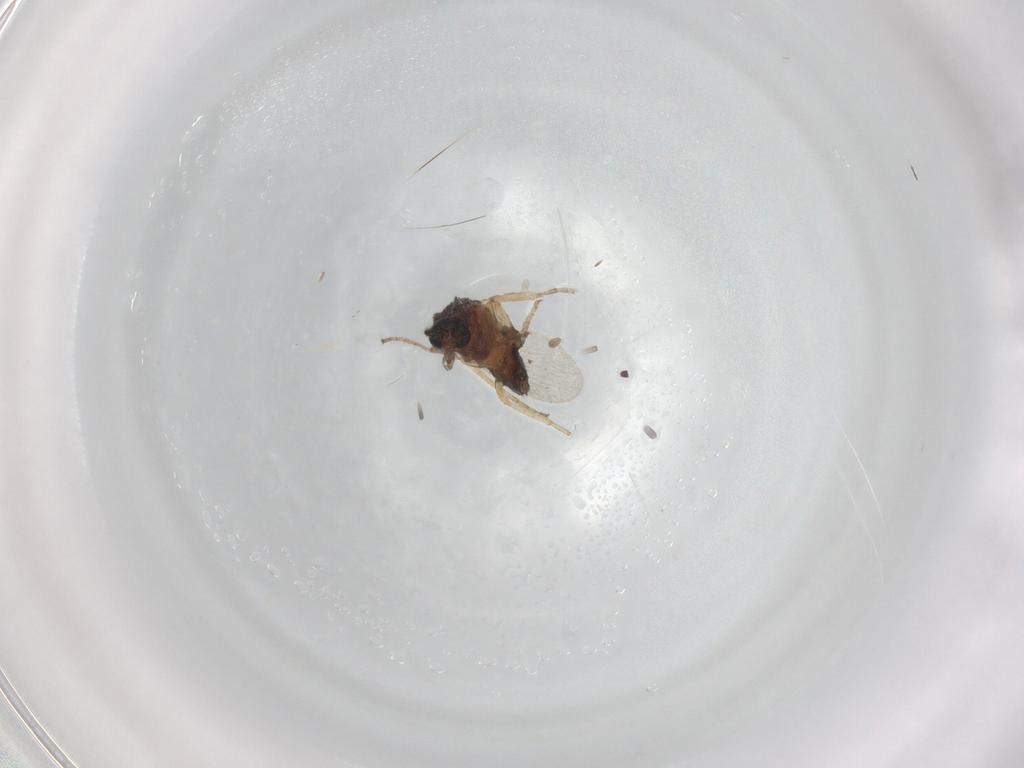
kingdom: Animalia
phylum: Arthropoda
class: Insecta
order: Diptera
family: Ceratopogonidae
